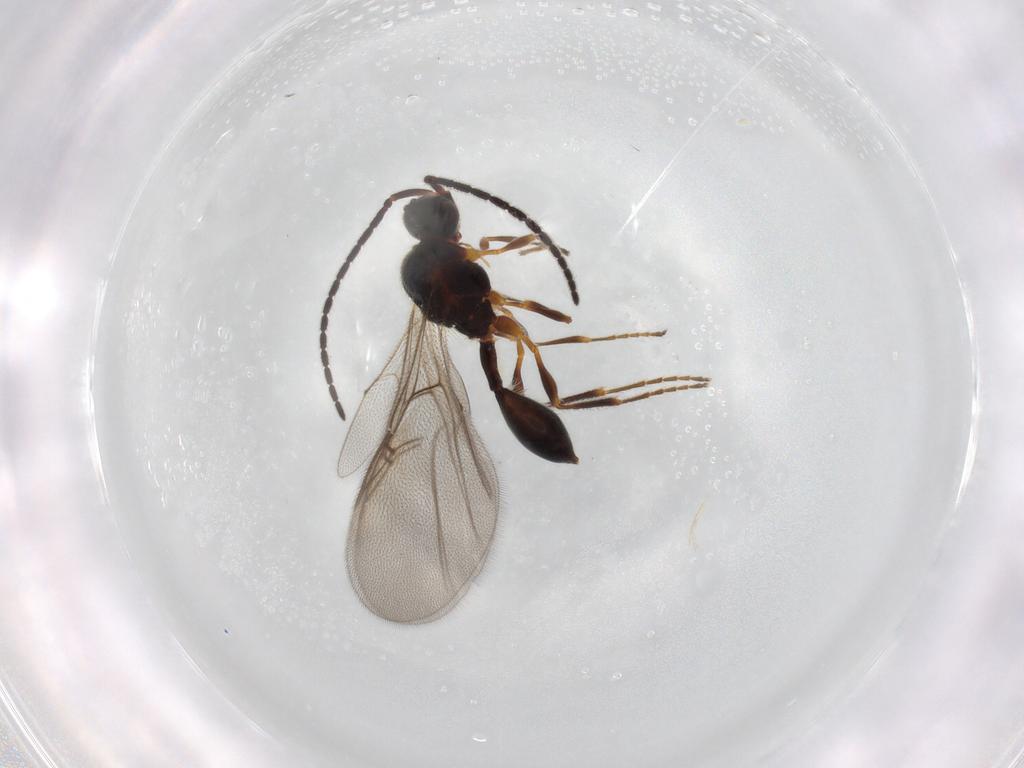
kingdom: Animalia
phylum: Arthropoda
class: Insecta
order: Hymenoptera
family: Diapriidae
